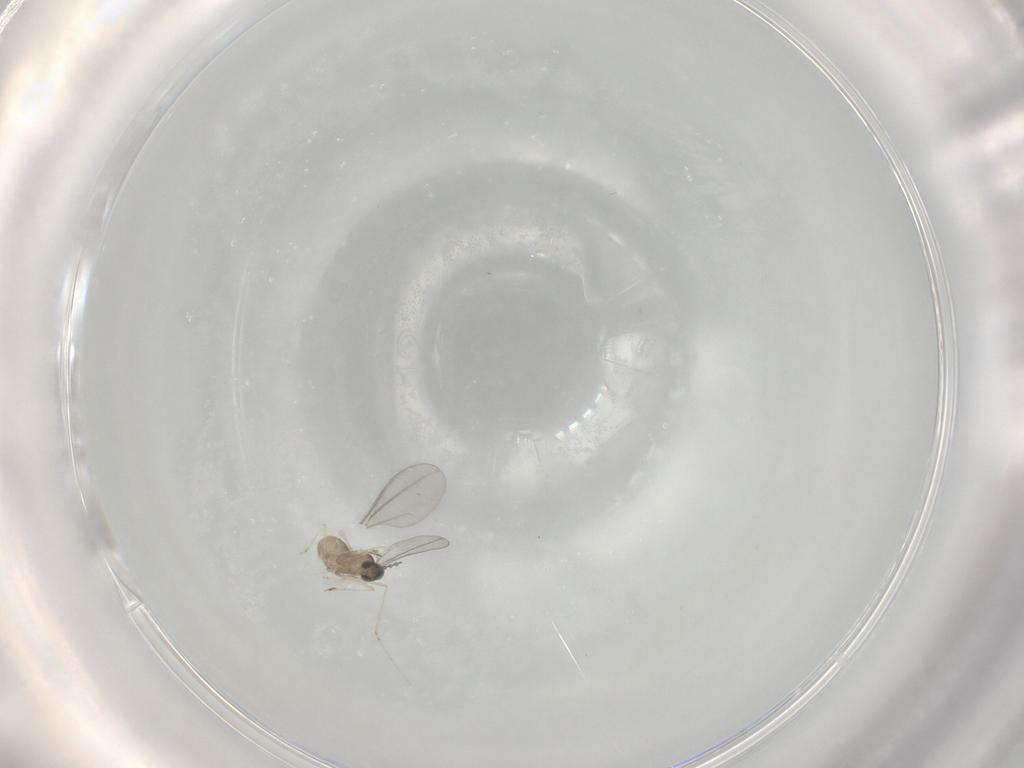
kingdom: Animalia
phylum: Arthropoda
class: Insecta
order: Diptera
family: Cecidomyiidae
